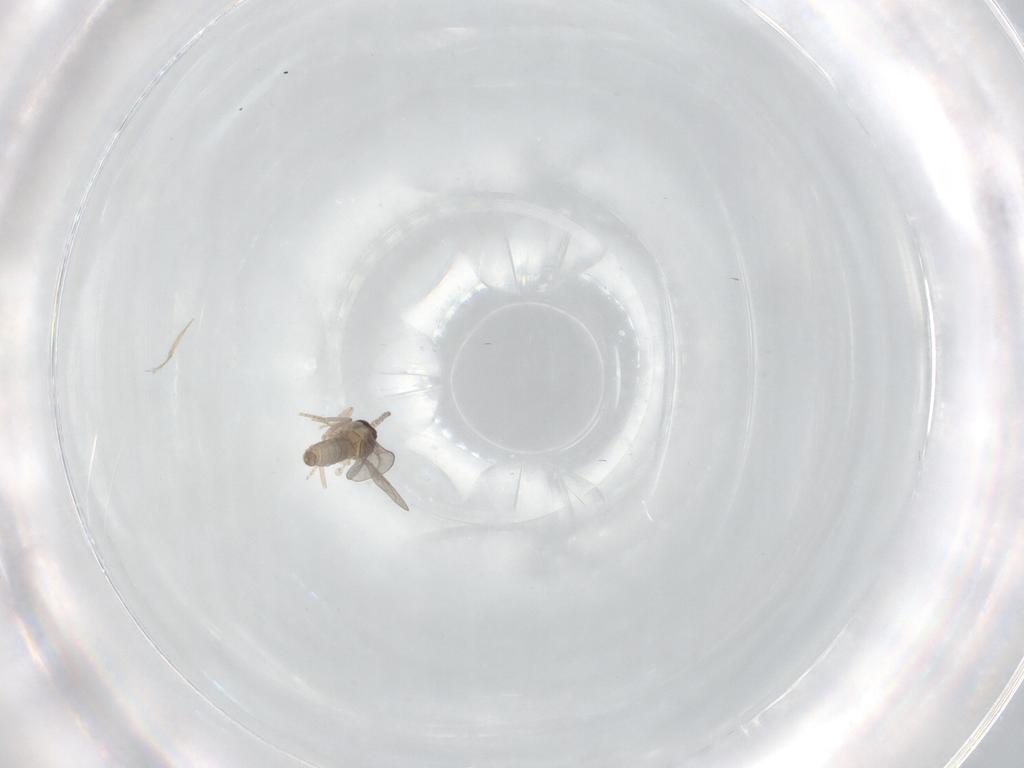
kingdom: Animalia
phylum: Arthropoda
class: Insecta
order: Diptera
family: Cecidomyiidae
